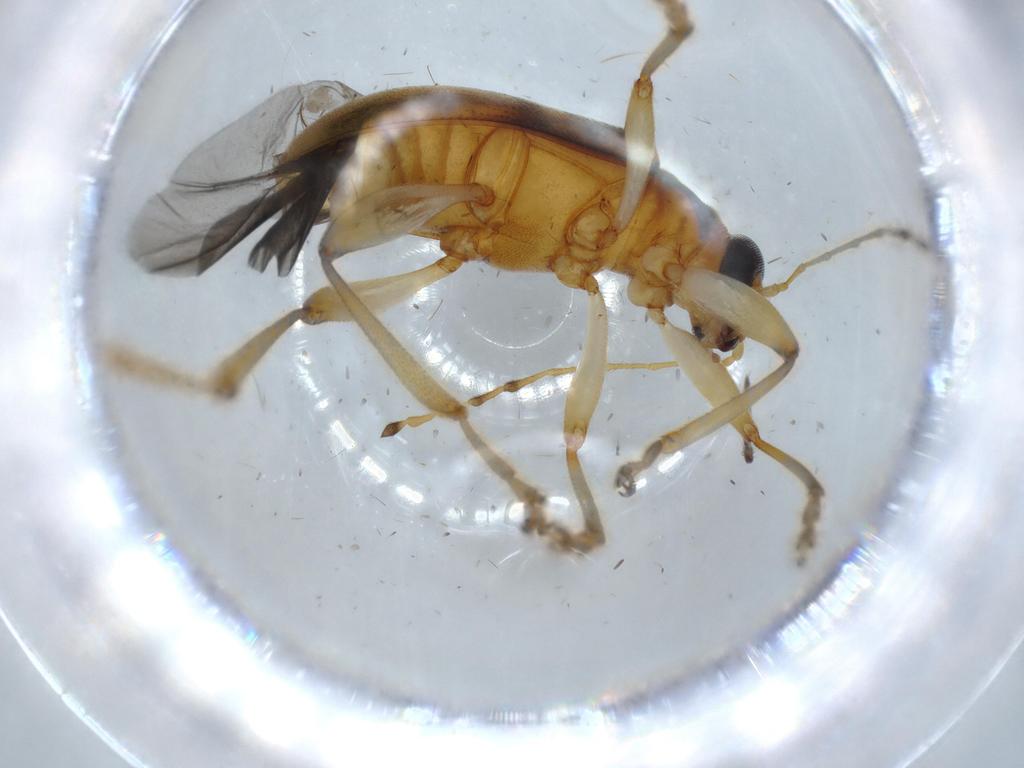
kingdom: Animalia
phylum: Arthropoda
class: Insecta
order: Coleoptera
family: Chrysomelidae
